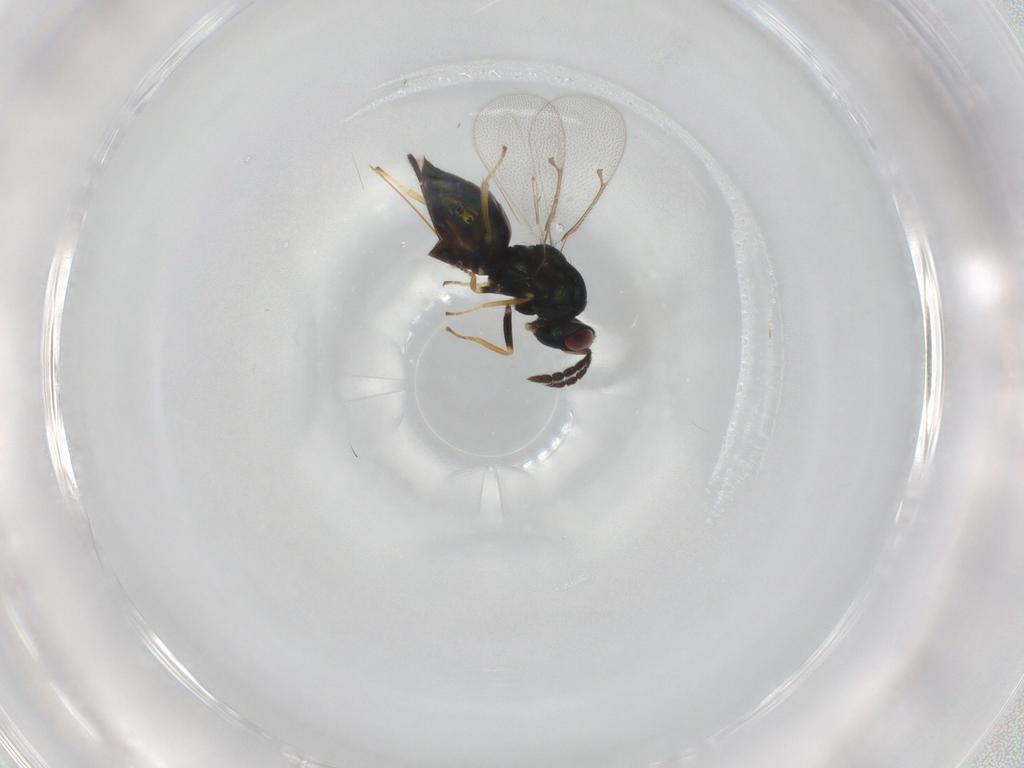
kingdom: Animalia
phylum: Arthropoda
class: Insecta
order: Hymenoptera
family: Eulophidae
